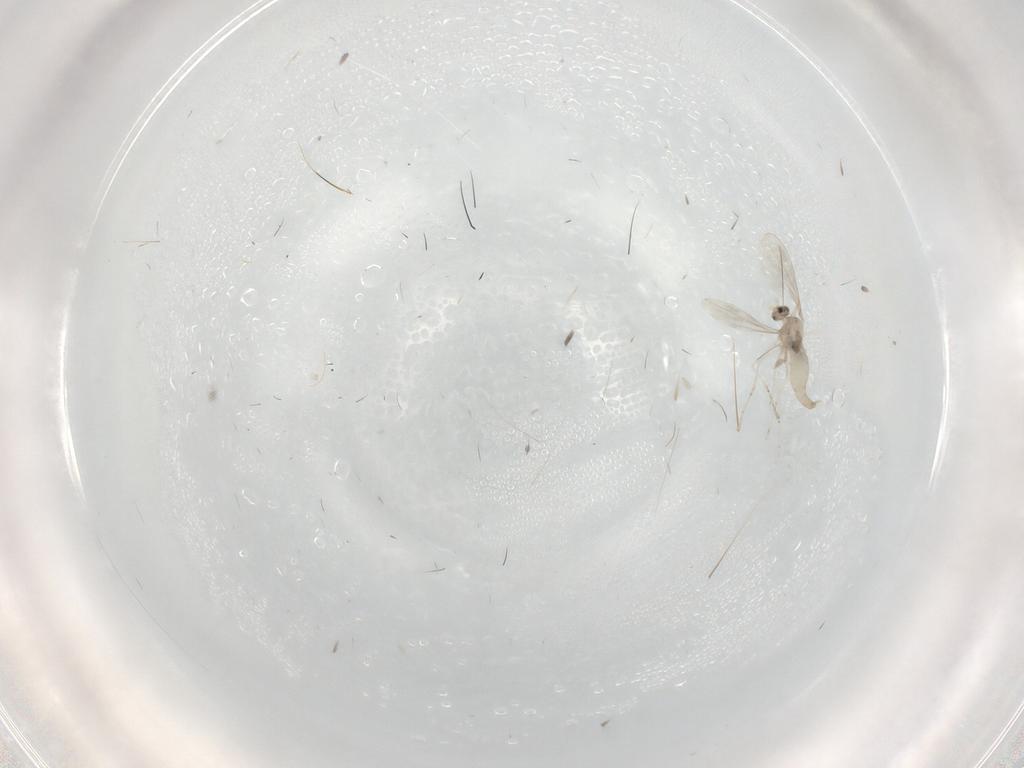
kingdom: Animalia
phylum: Arthropoda
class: Insecta
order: Diptera
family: Cecidomyiidae
